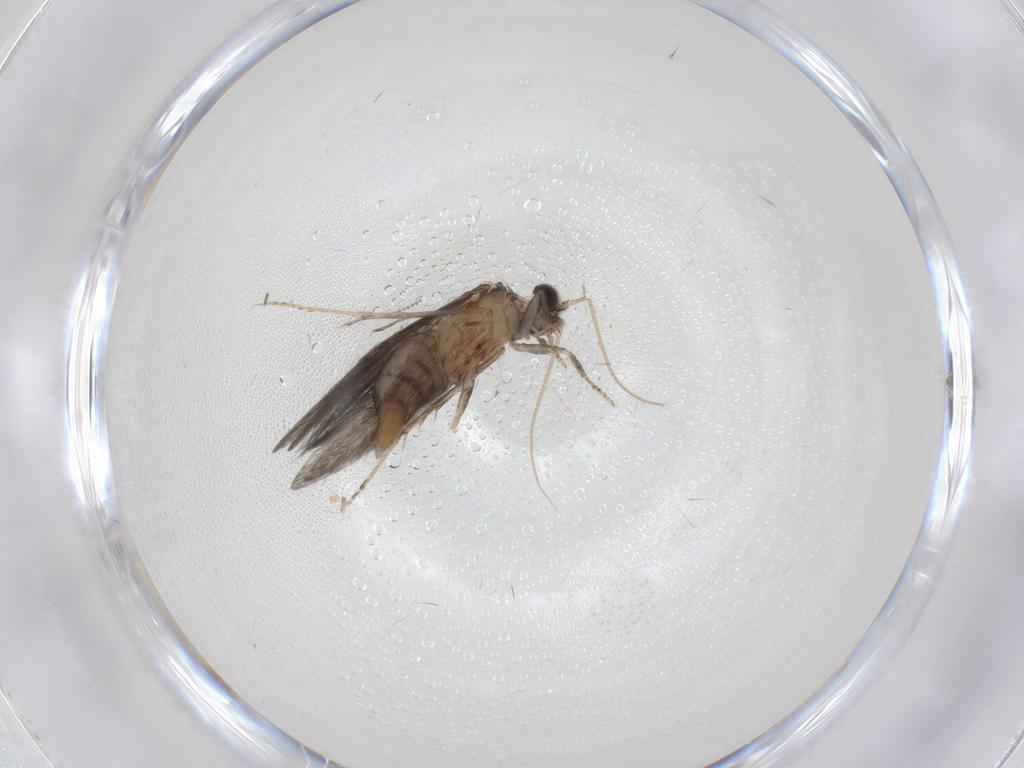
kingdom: Animalia
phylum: Arthropoda
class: Insecta
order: Trichoptera
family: Hydroptilidae
